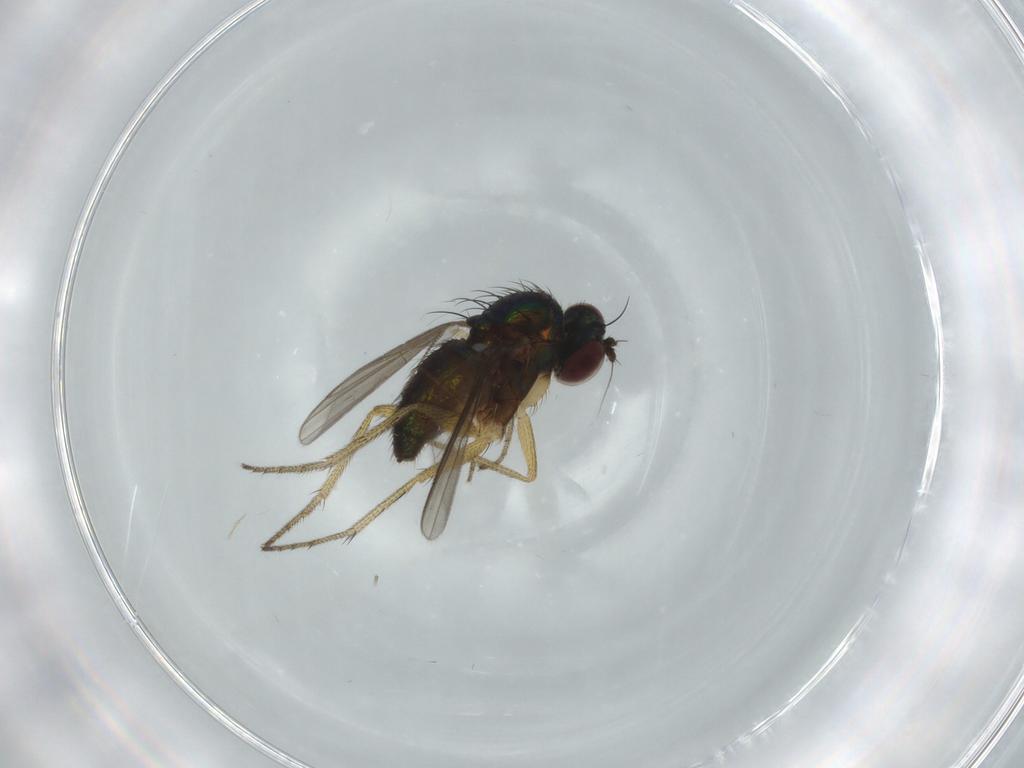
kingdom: Animalia
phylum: Arthropoda
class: Insecta
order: Diptera
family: Dolichopodidae
